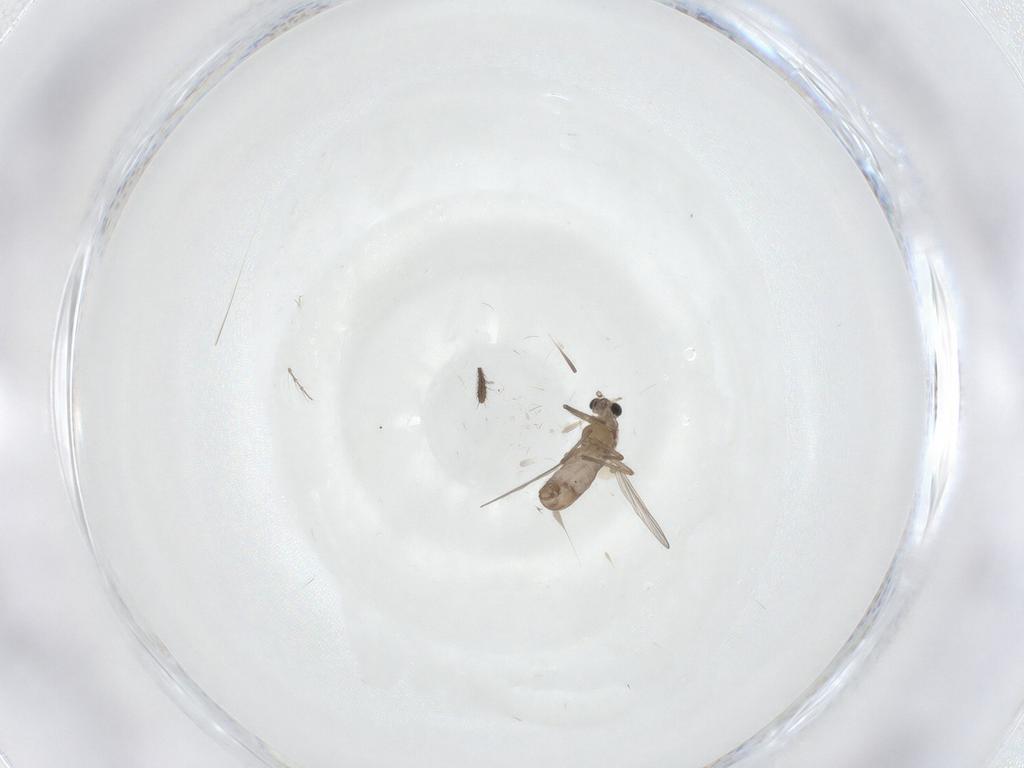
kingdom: Animalia
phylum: Arthropoda
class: Insecta
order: Diptera
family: Chironomidae
